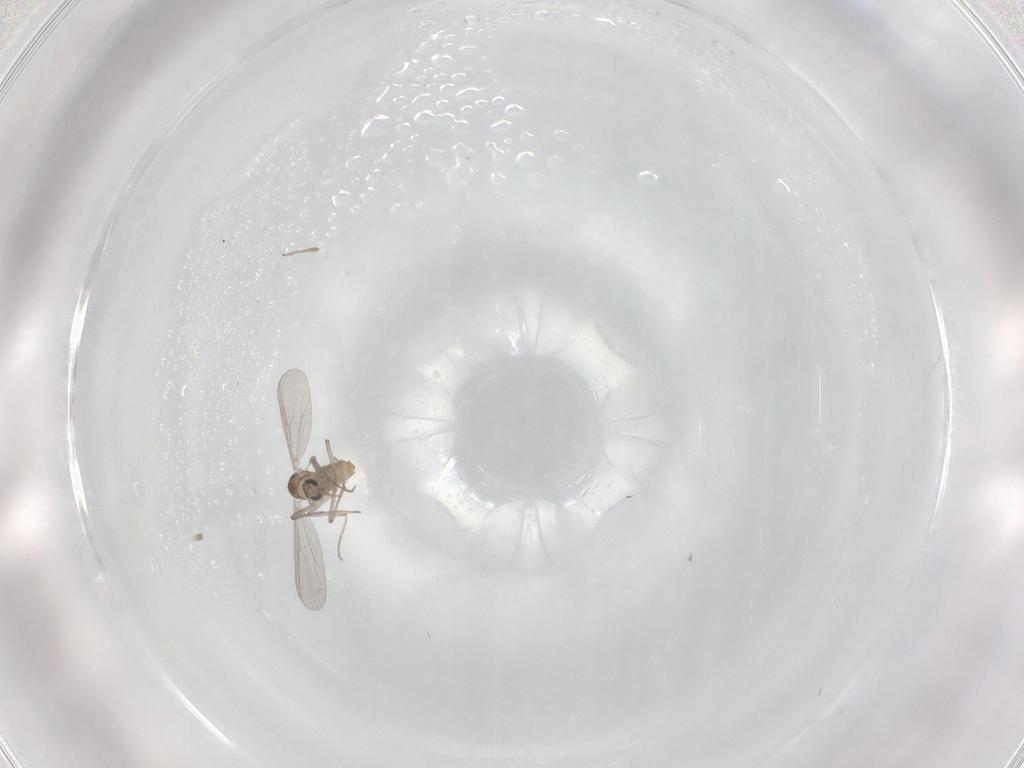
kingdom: Animalia
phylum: Arthropoda
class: Insecta
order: Diptera
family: Chironomidae
